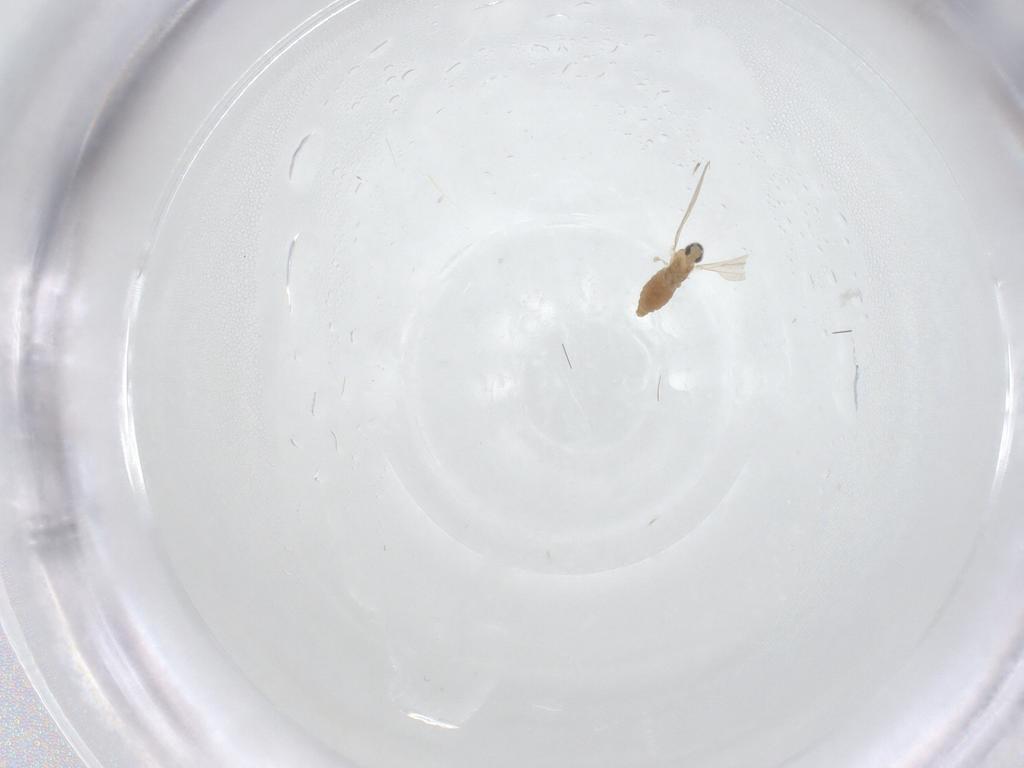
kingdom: Animalia
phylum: Arthropoda
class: Insecta
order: Diptera
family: Cecidomyiidae
